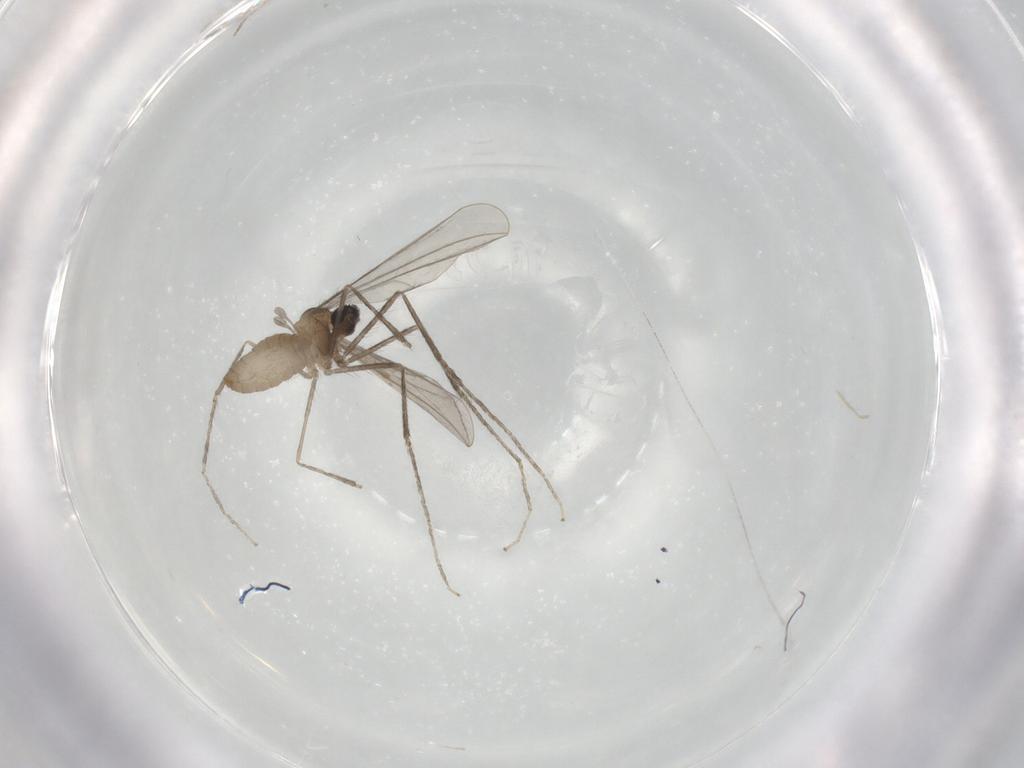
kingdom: Animalia
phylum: Arthropoda
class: Insecta
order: Diptera
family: Cecidomyiidae
